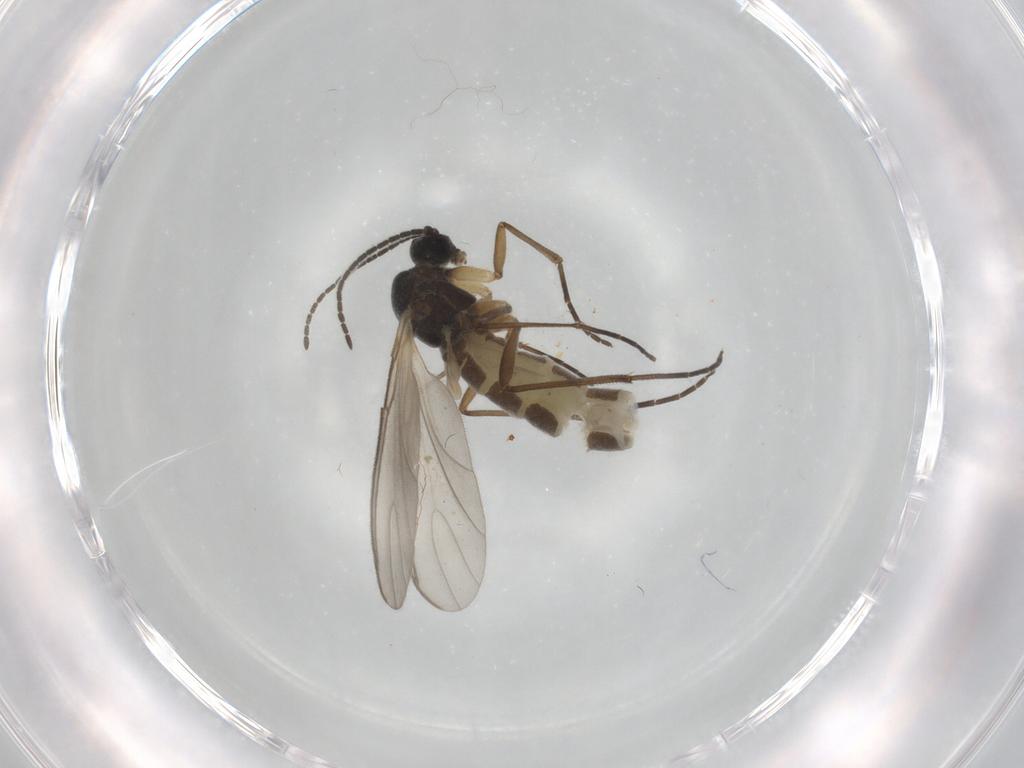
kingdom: Animalia
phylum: Arthropoda
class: Insecta
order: Diptera
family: Sciaridae
